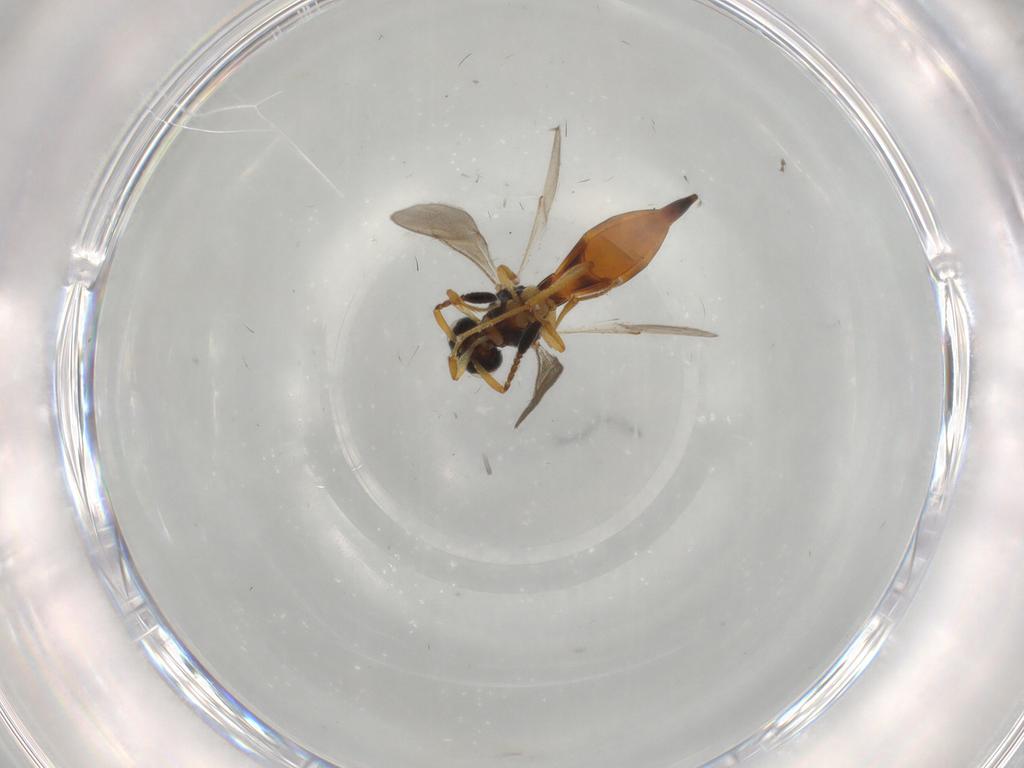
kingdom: Animalia
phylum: Arthropoda
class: Insecta
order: Hymenoptera
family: Scelionidae
